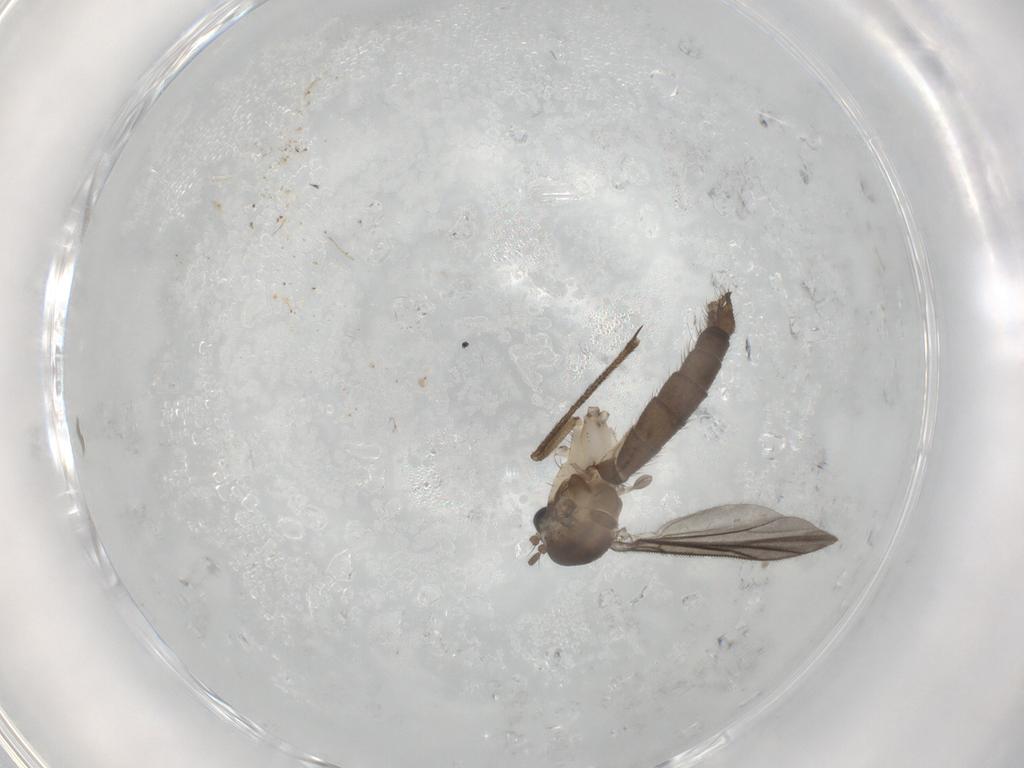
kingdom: Animalia
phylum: Arthropoda
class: Insecta
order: Diptera
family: Ceratopogonidae
